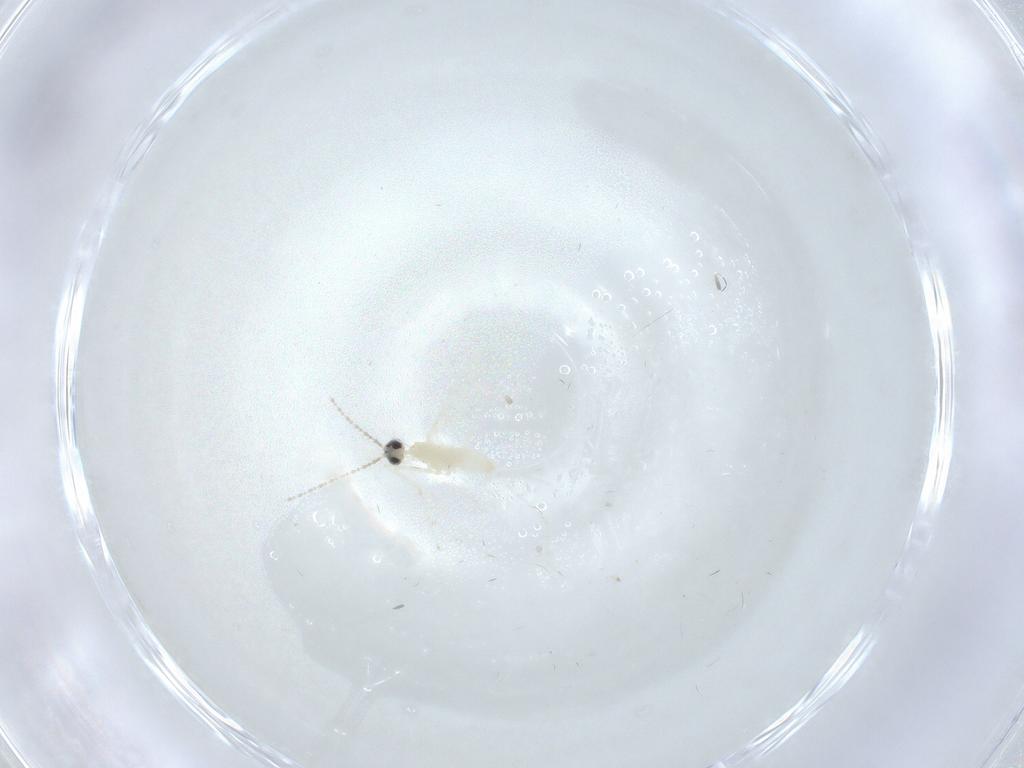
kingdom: Animalia
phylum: Arthropoda
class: Insecta
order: Diptera
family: Cecidomyiidae
